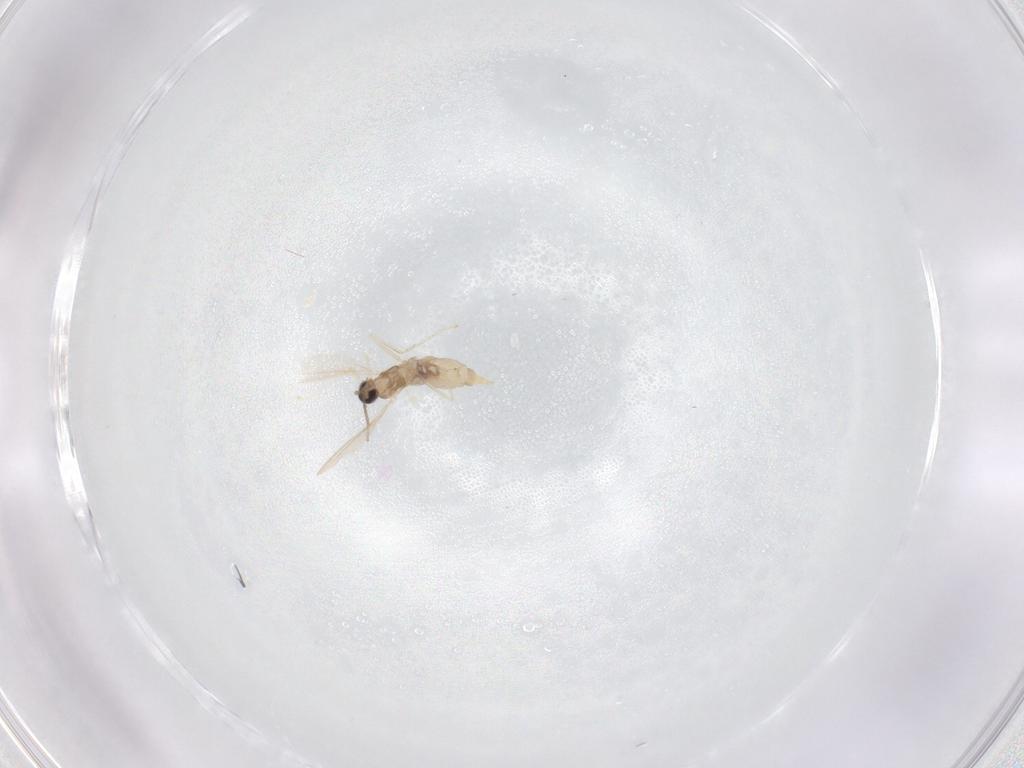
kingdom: Animalia
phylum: Arthropoda
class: Insecta
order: Diptera
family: Cecidomyiidae
